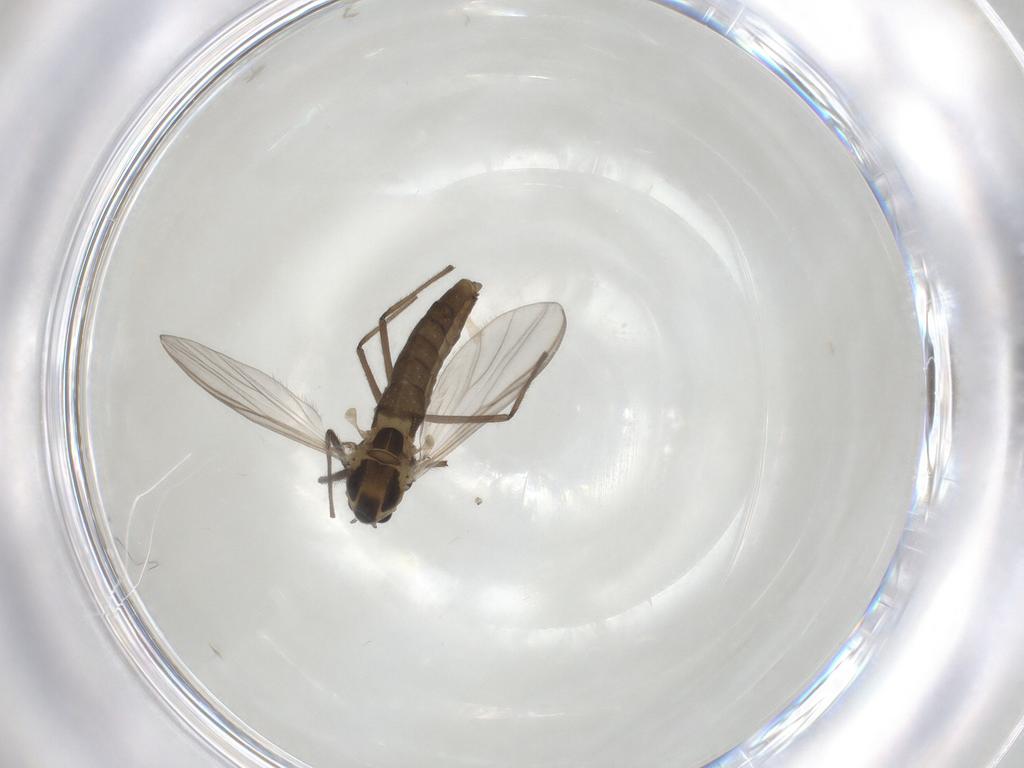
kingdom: Animalia
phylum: Arthropoda
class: Insecta
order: Diptera
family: Chironomidae
